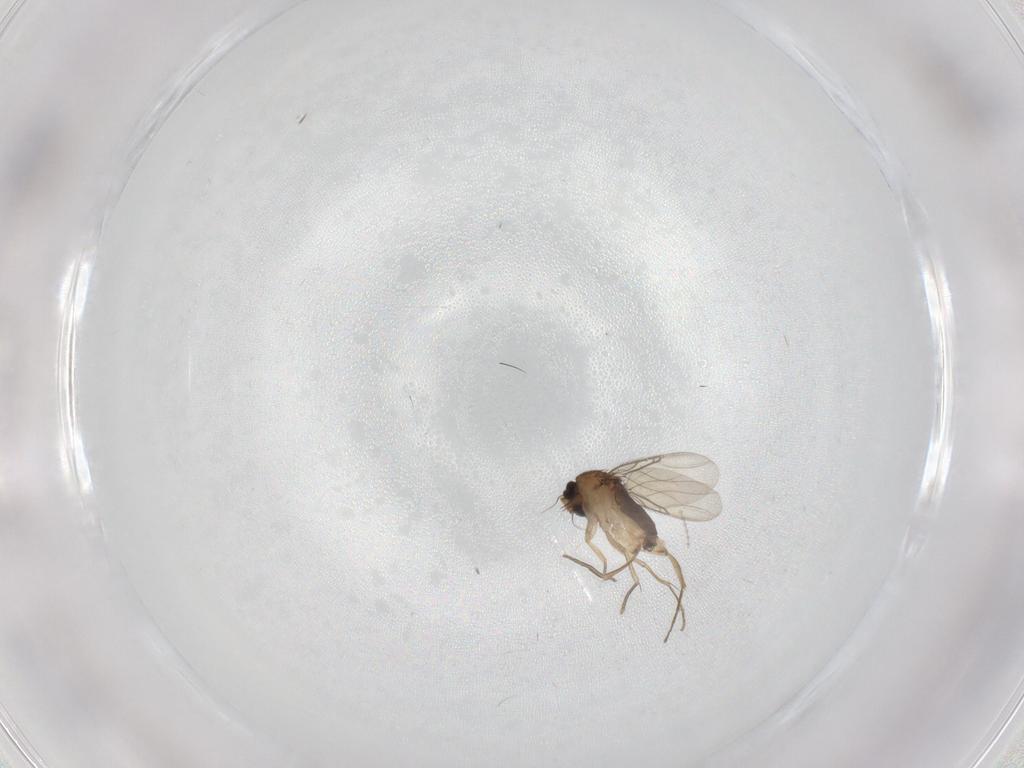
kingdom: Animalia
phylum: Arthropoda
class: Insecta
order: Diptera
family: Phoridae
